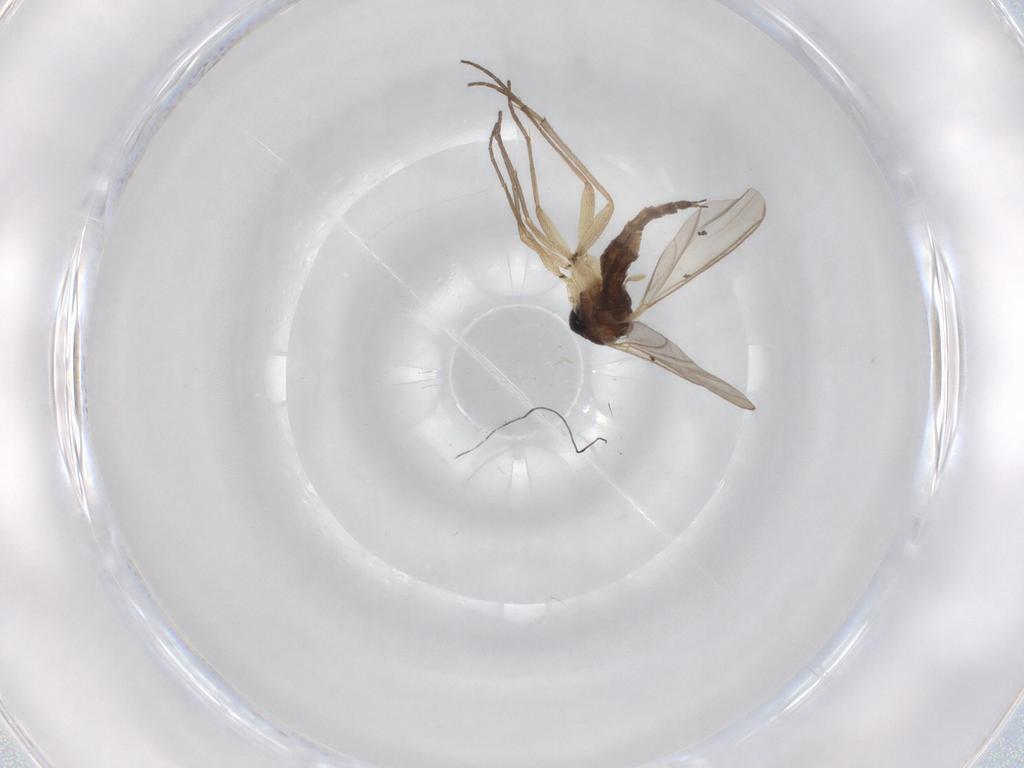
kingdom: Animalia
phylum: Arthropoda
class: Insecta
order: Diptera
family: Sciaridae
